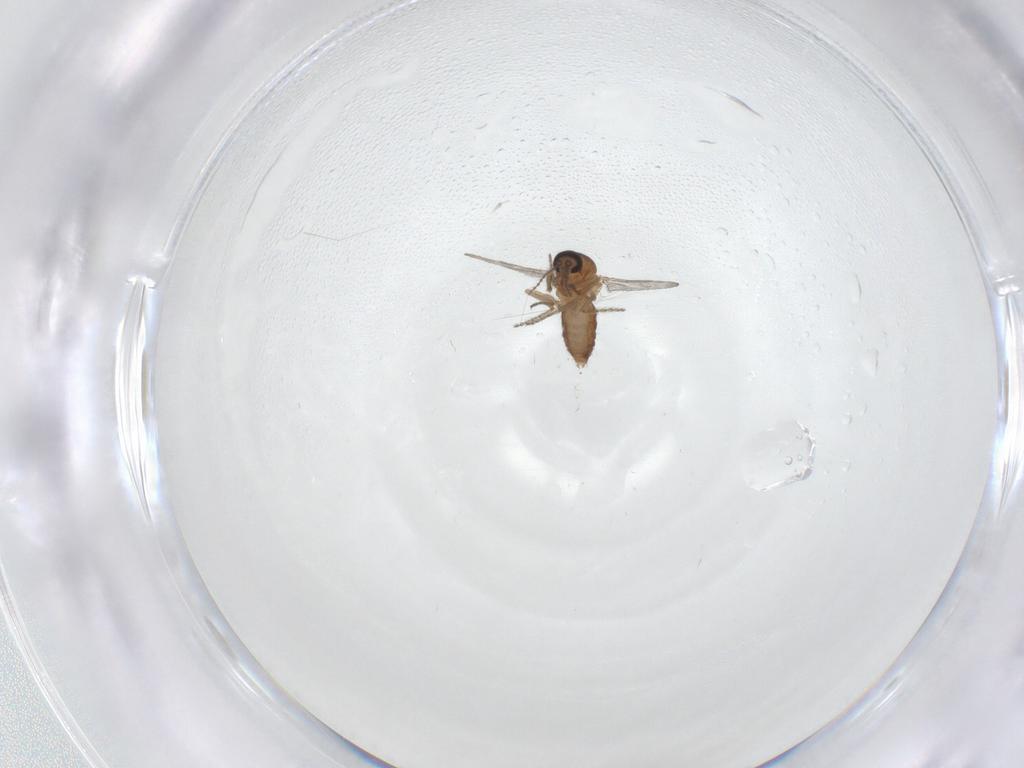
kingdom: Animalia
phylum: Arthropoda
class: Insecta
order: Diptera
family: Ceratopogonidae
